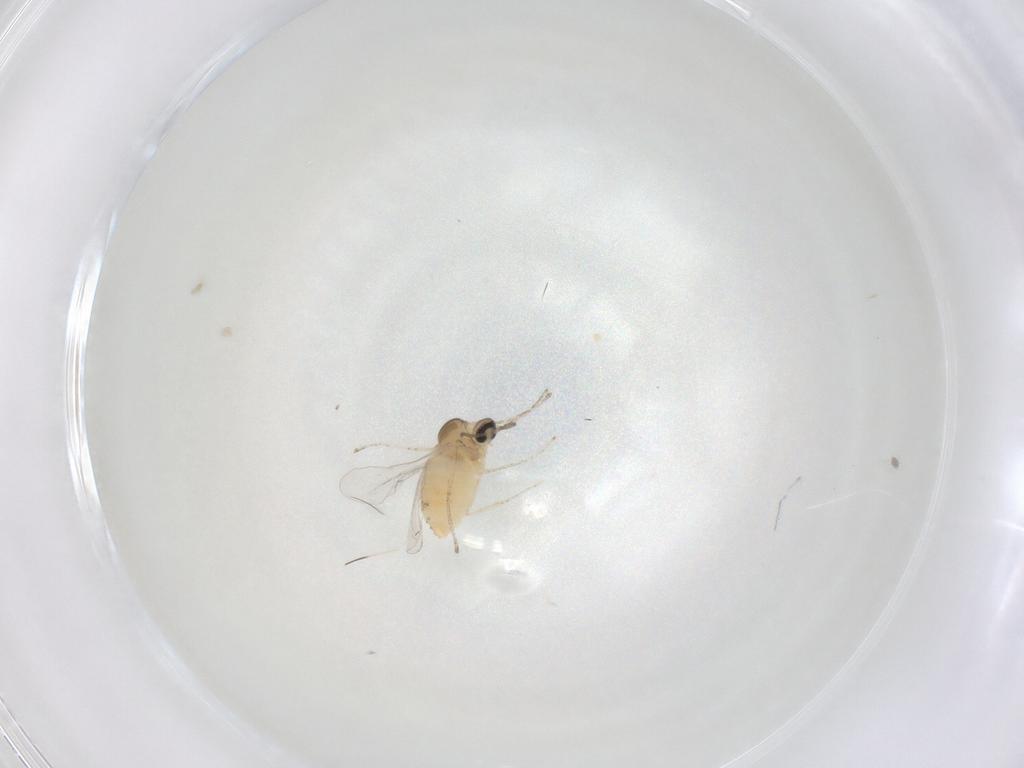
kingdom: Animalia
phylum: Arthropoda
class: Insecta
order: Diptera
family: Cecidomyiidae
